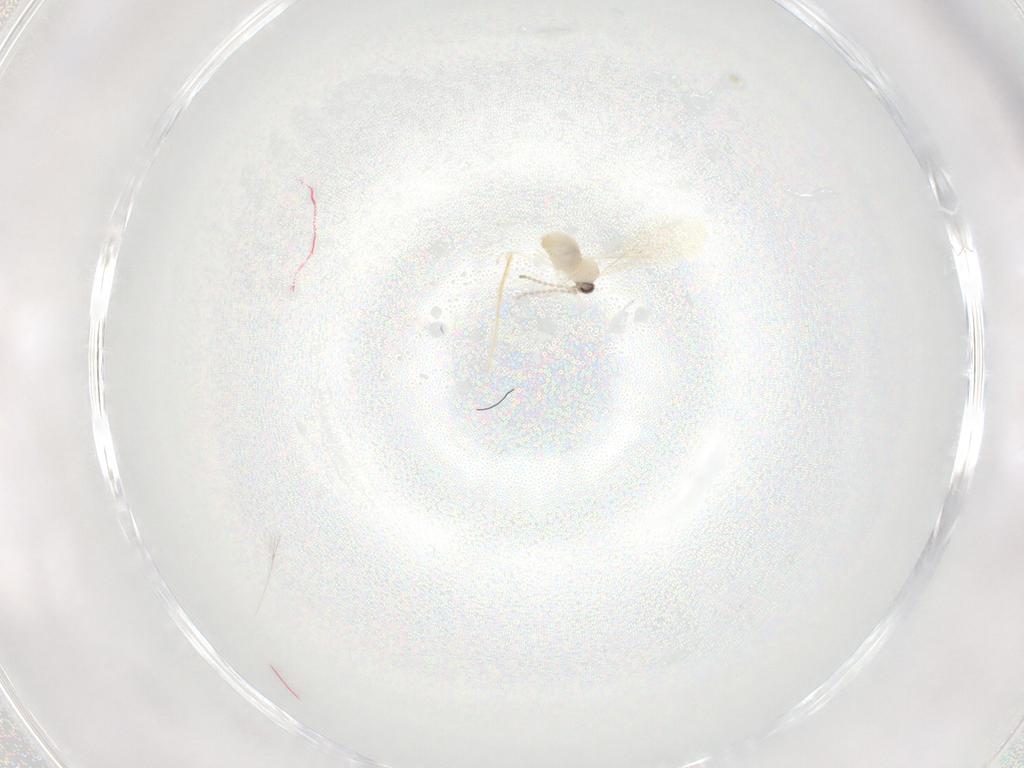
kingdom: Animalia
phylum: Arthropoda
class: Insecta
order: Diptera
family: Cecidomyiidae
